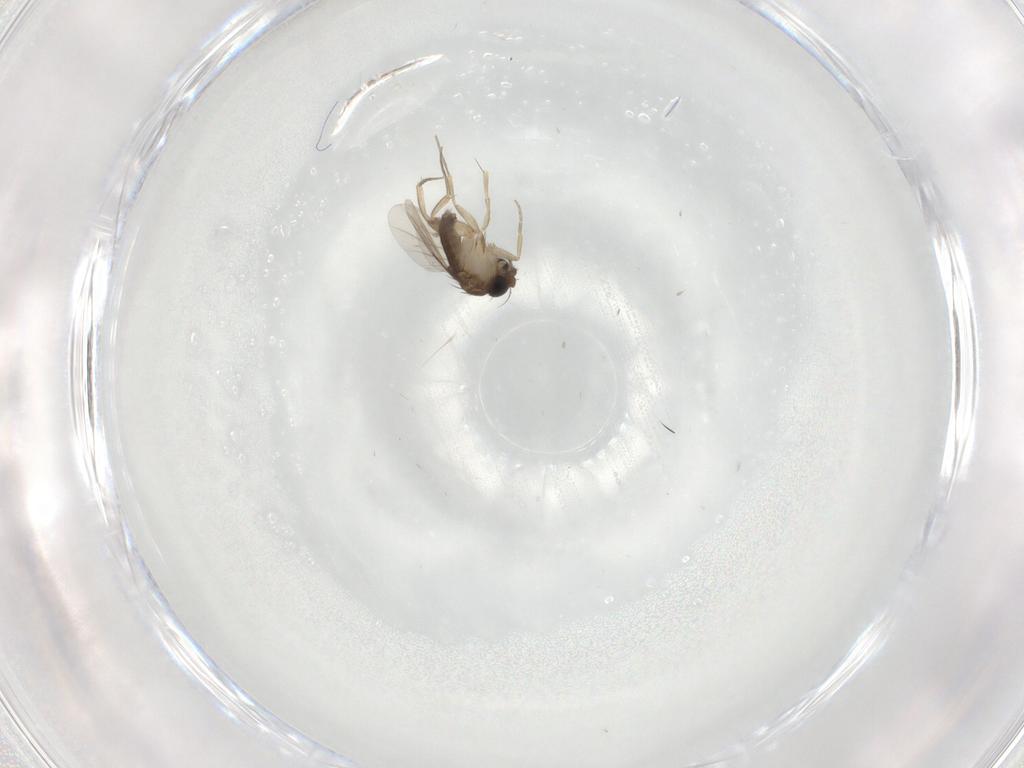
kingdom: Animalia
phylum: Arthropoda
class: Insecta
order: Diptera
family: Phoridae
